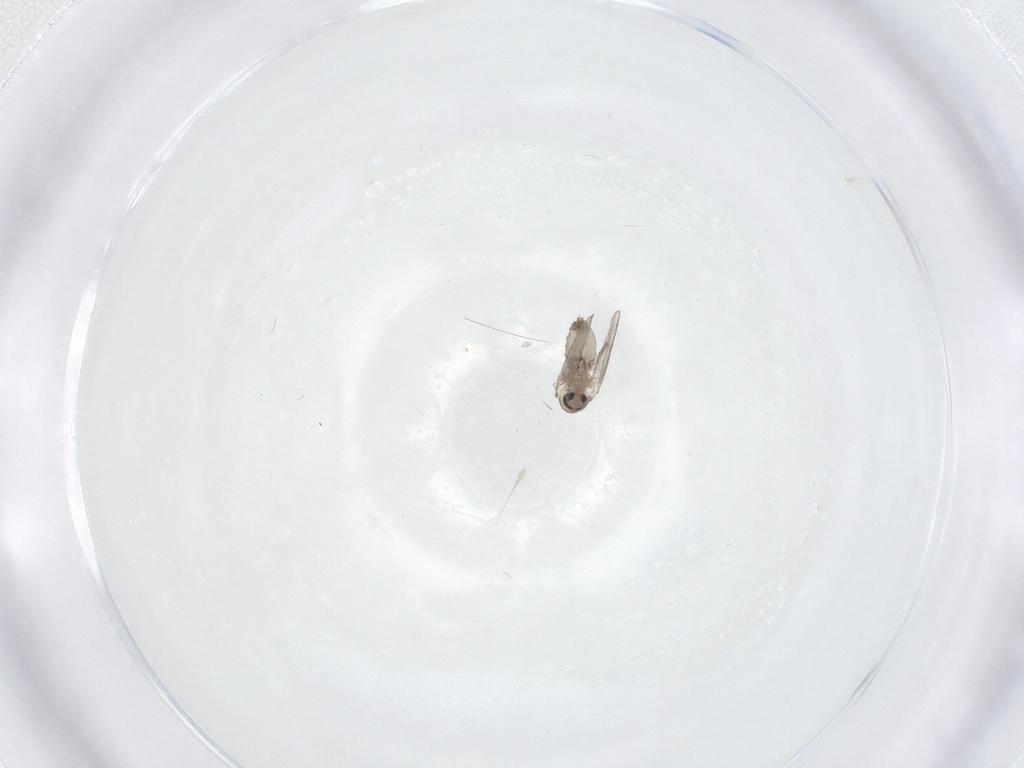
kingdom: Animalia
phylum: Arthropoda
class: Insecta
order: Diptera
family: Psychodidae
